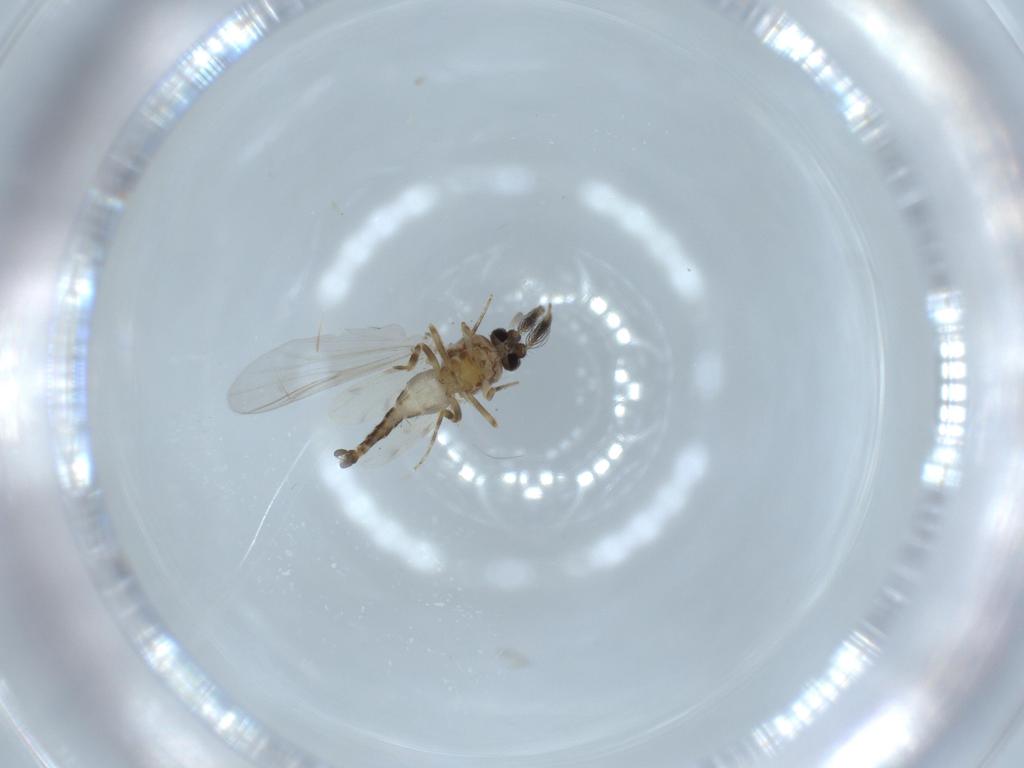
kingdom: Animalia
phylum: Arthropoda
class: Insecta
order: Diptera
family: Ceratopogonidae
